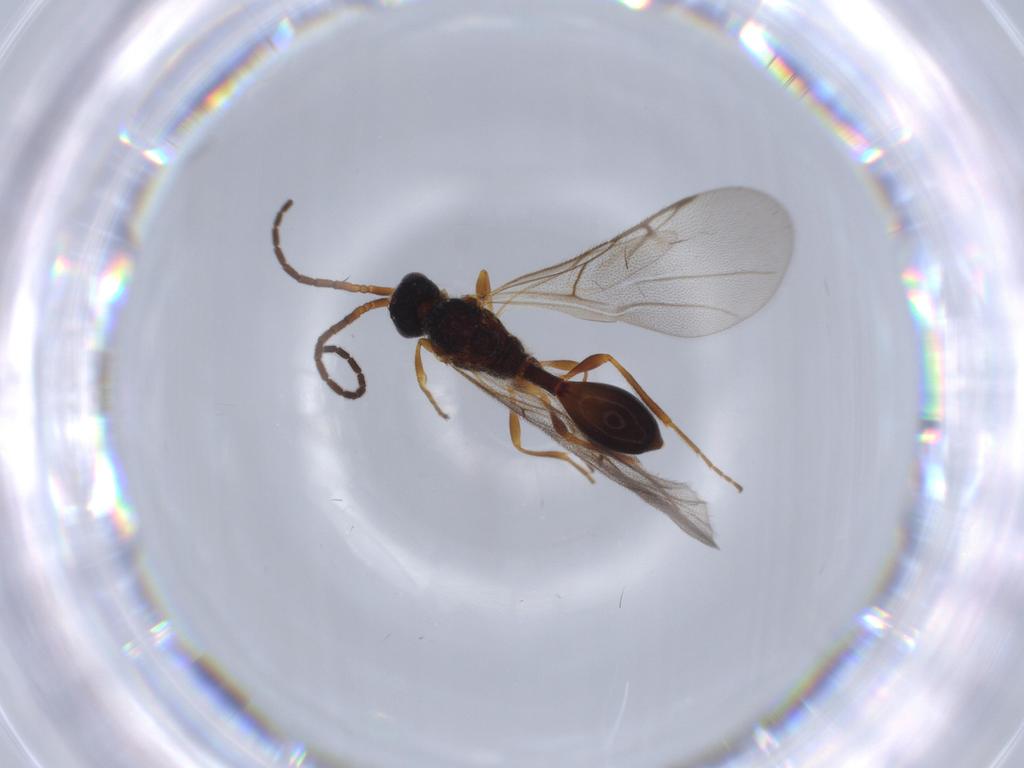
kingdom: Animalia
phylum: Arthropoda
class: Insecta
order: Hymenoptera
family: Diapriidae
